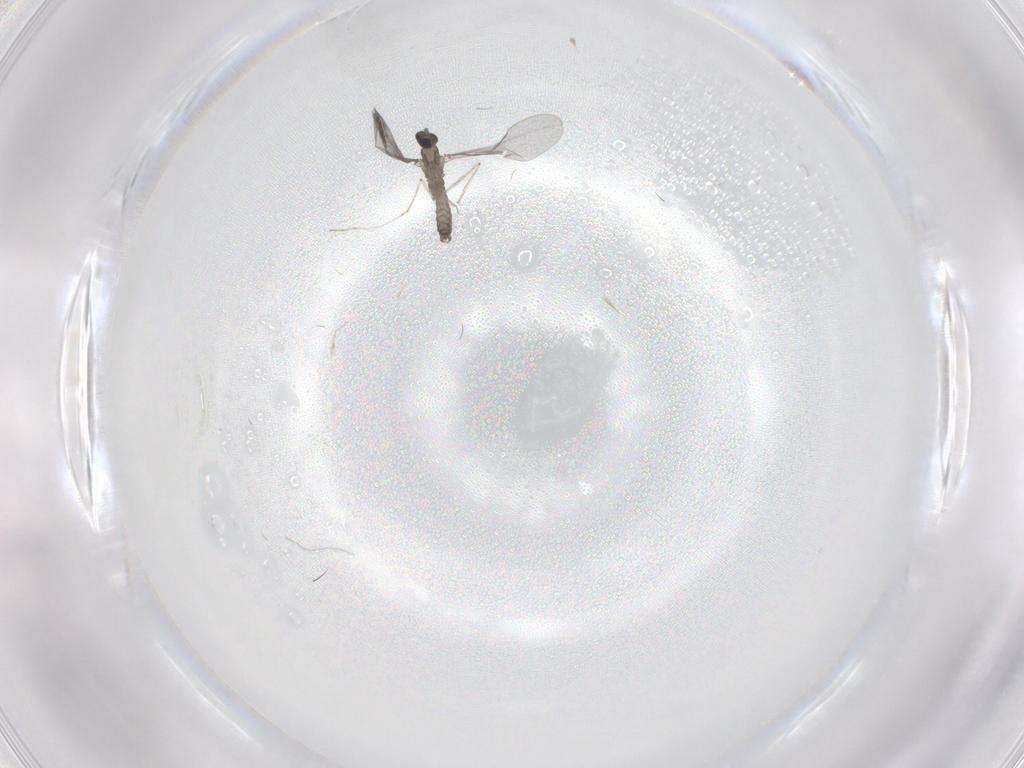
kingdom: Animalia
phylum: Arthropoda
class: Insecta
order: Diptera
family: Cecidomyiidae
